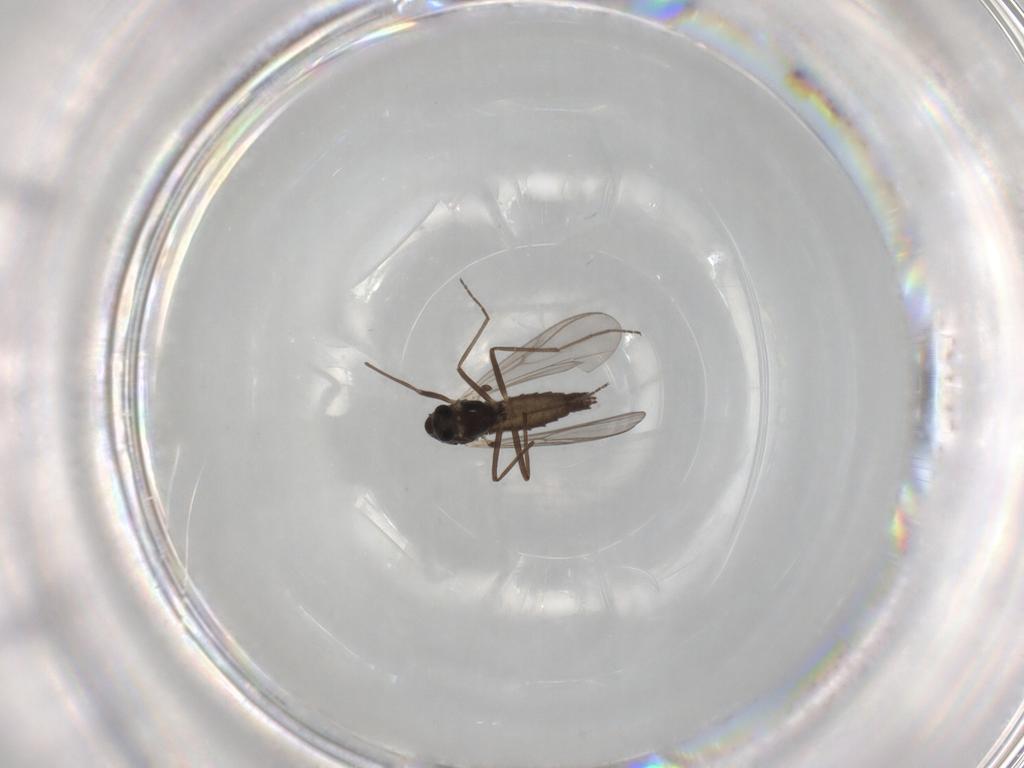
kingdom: Animalia
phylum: Arthropoda
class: Insecta
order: Diptera
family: Chironomidae
